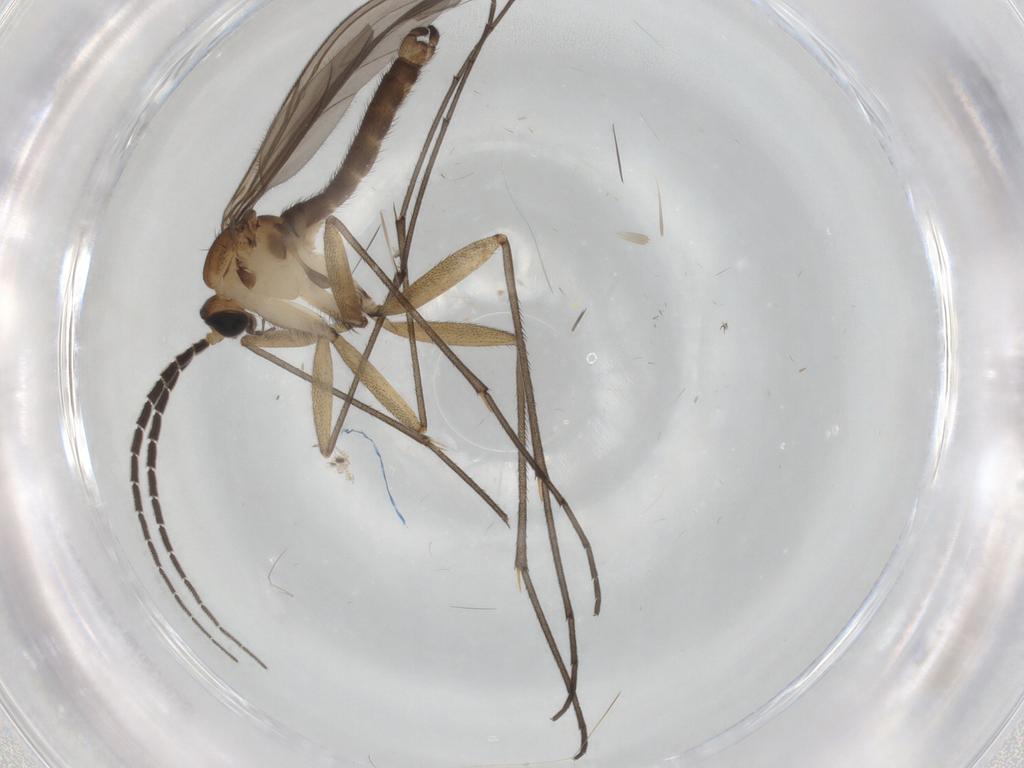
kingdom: Animalia
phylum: Arthropoda
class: Insecta
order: Diptera
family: Sciaridae
